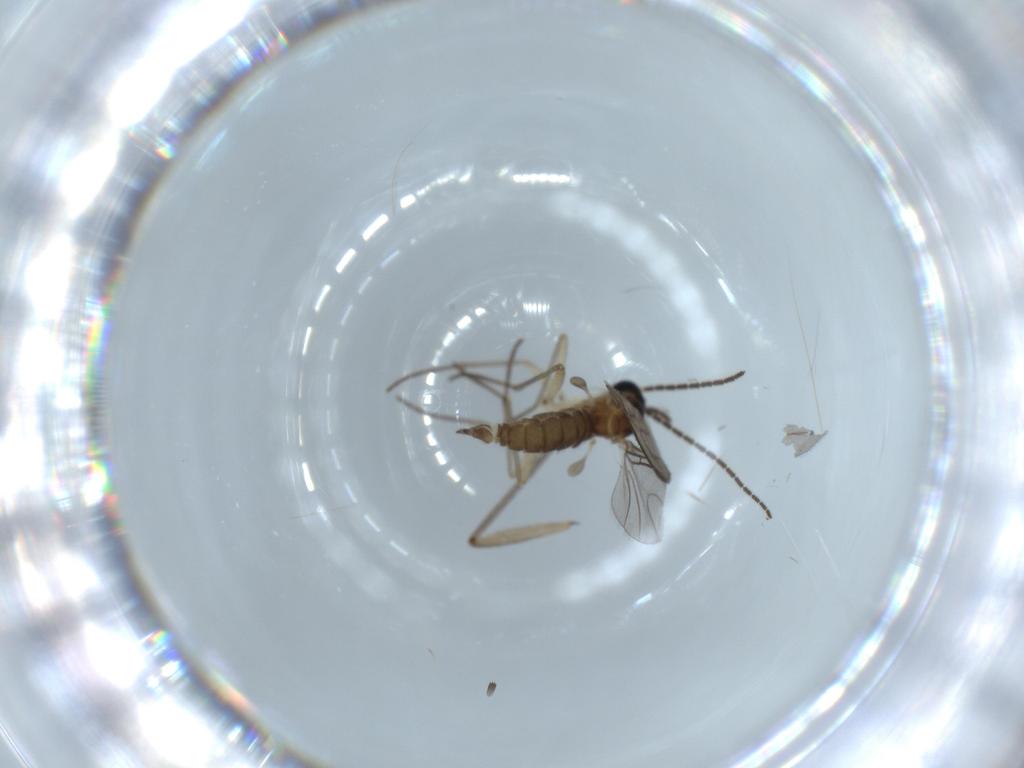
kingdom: Animalia
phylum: Arthropoda
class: Insecta
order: Diptera
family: Sciaridae
